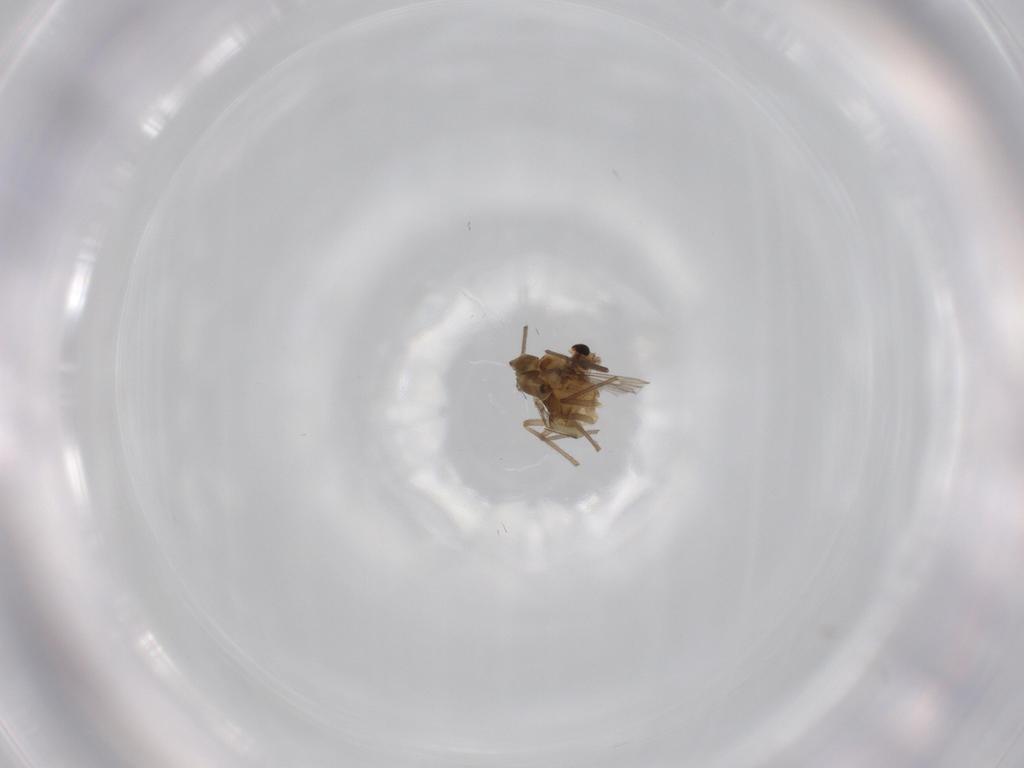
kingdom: Animalia
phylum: Arthropoda
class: Insecta
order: Diptera
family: Chironomidae
